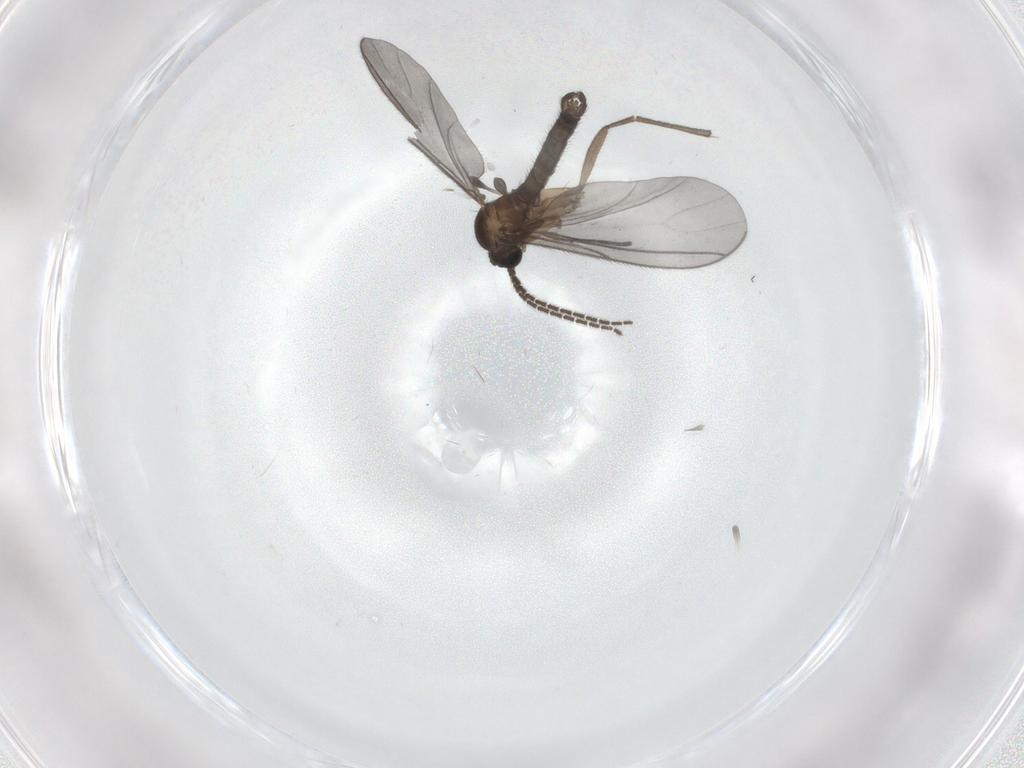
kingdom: Animalia
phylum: Arthropoda
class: Insecta
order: Diptera
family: Sciaridae
